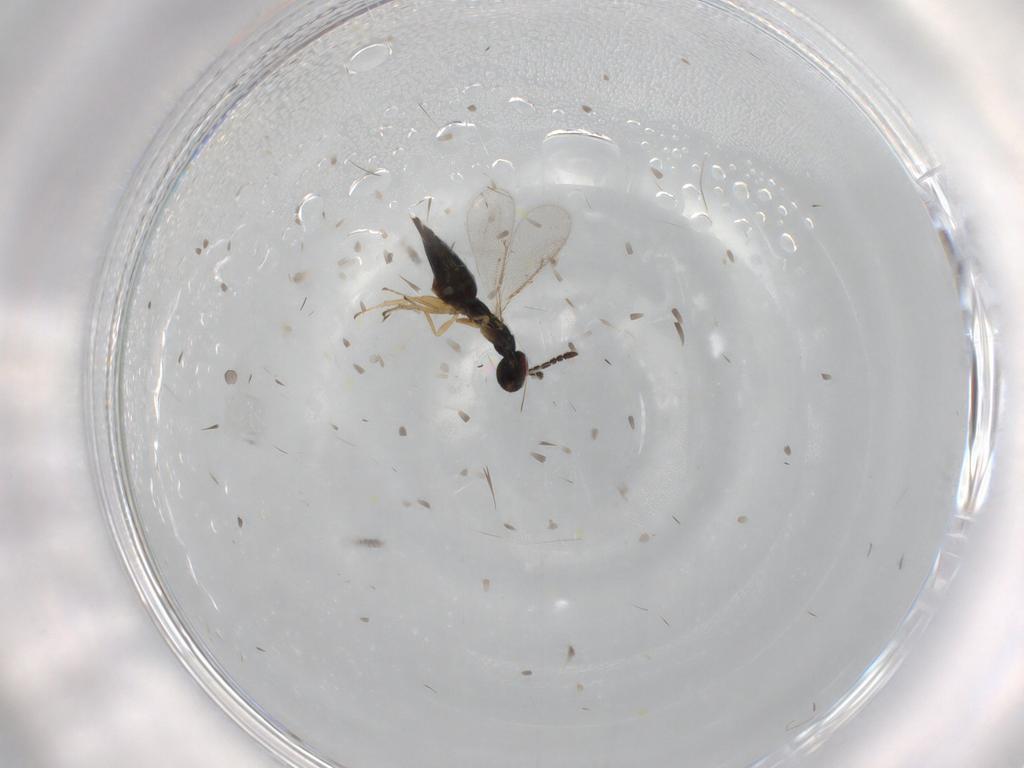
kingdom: Animalia
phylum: Arthropoda
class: Insecta
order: Hymenoptera
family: Eulophidae
